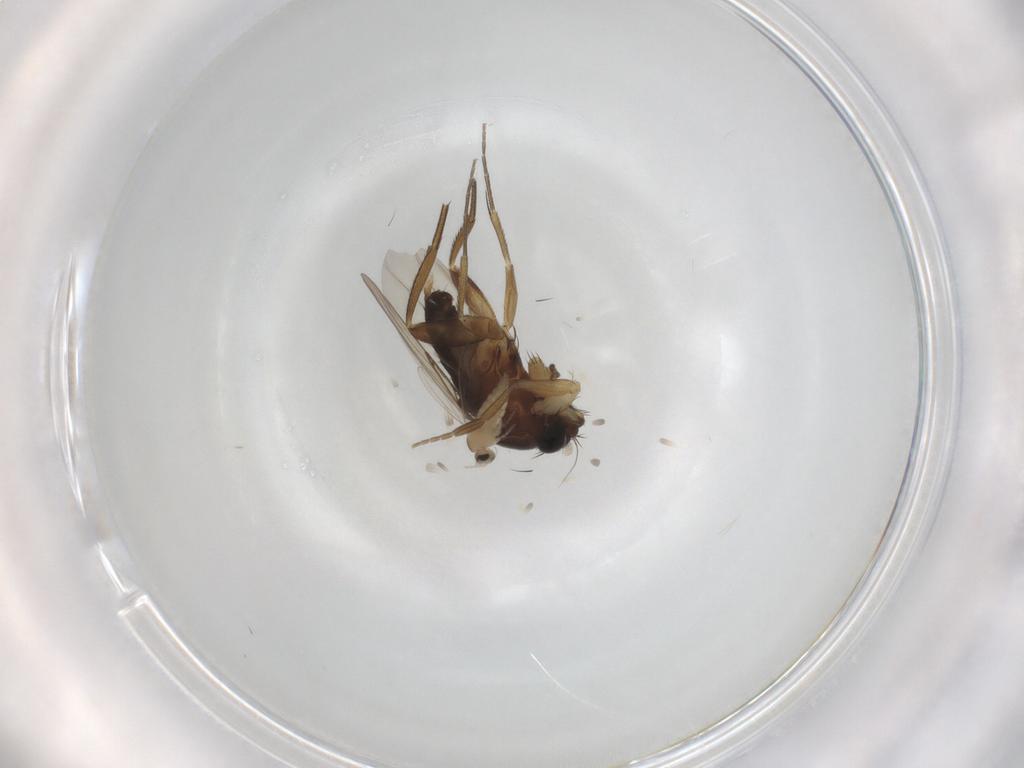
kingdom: Animalia
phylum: Arthropoda
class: Insecta
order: Diptera
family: Cecidomyiidae
